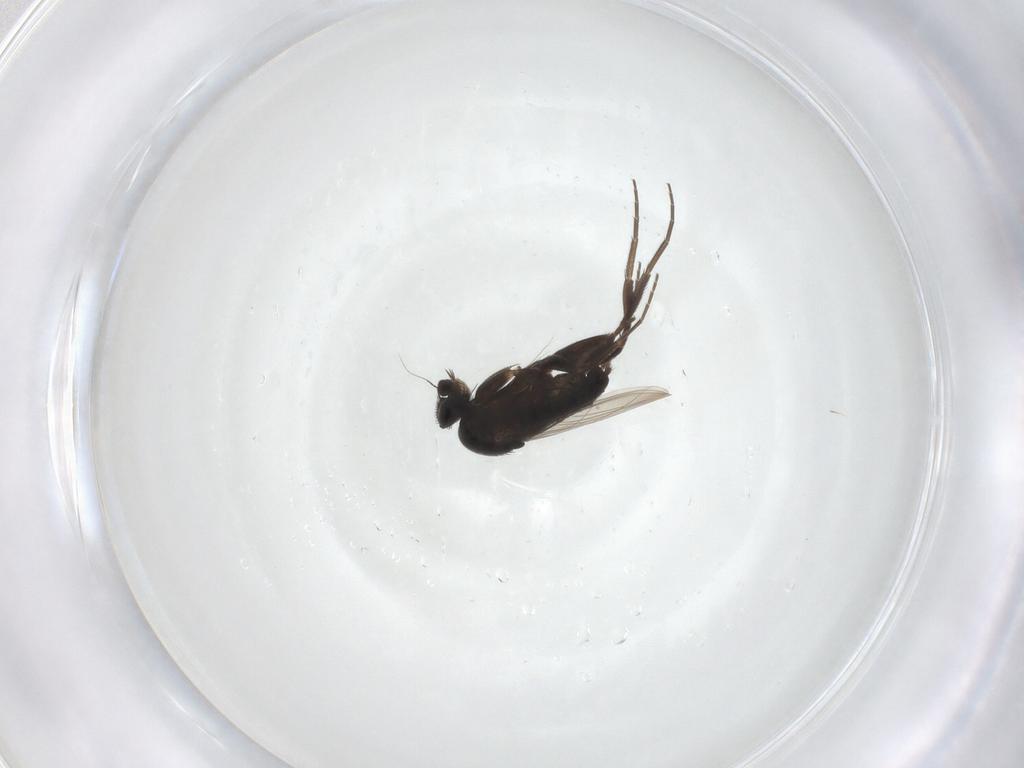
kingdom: Animalia
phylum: Arthropoda
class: Insecta
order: Diptera
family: Phoridae
